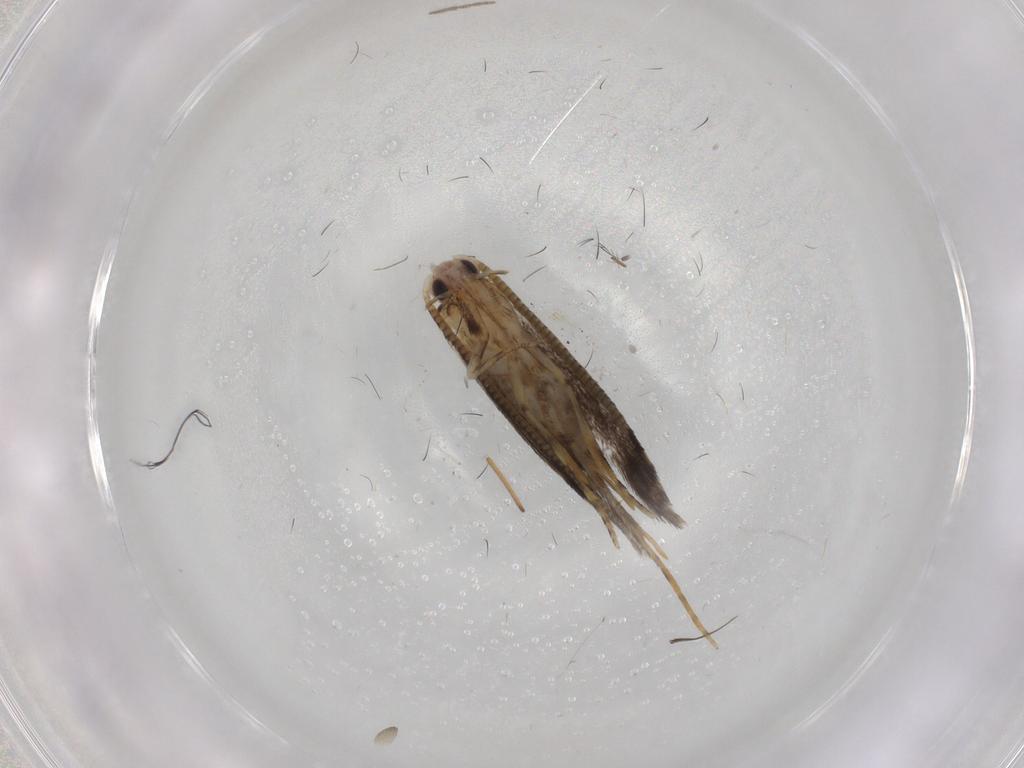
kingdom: Animalia
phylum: Arthropoda
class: Insecta
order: Lepidoptera
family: Tineidae
